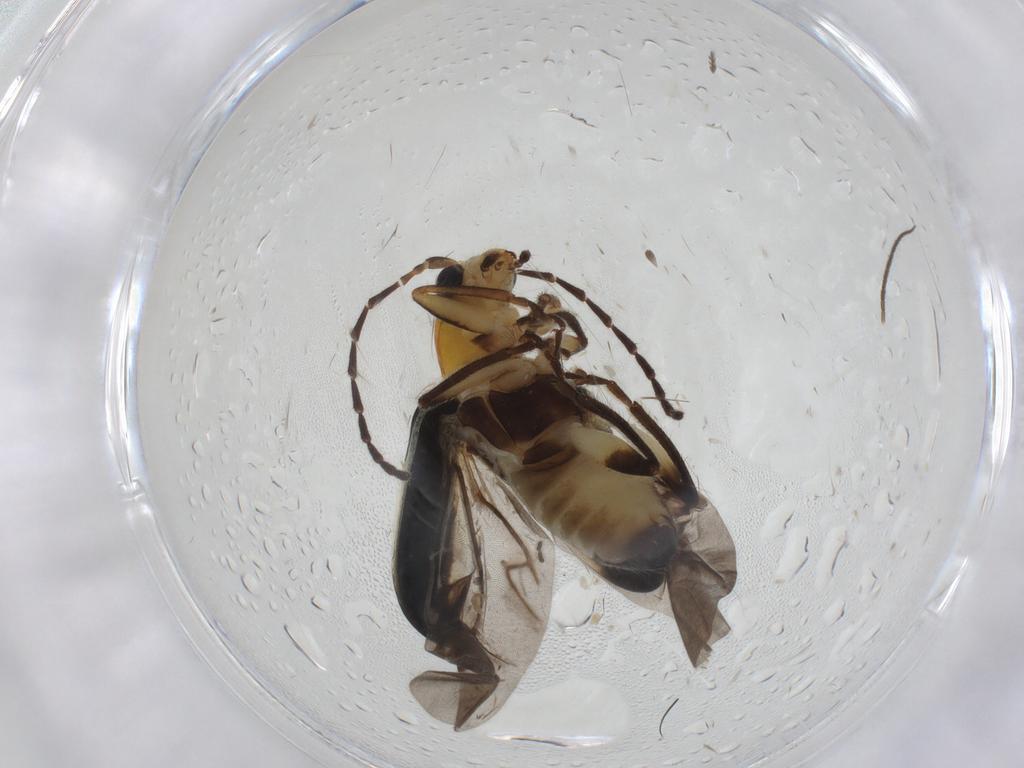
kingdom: Animalia
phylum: Arthropoda
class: Insecta
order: Coleoptera
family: Chrysomelidae
